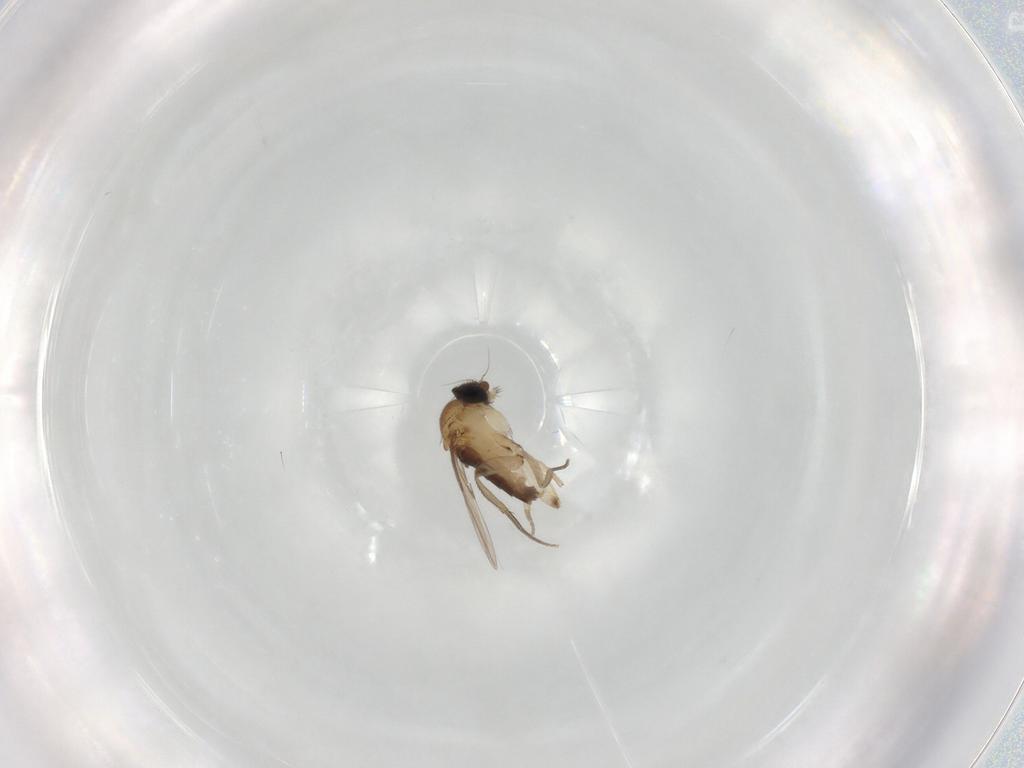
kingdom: Animalia
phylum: Arthropoda
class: Insecta
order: Diptera
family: Phoridae
